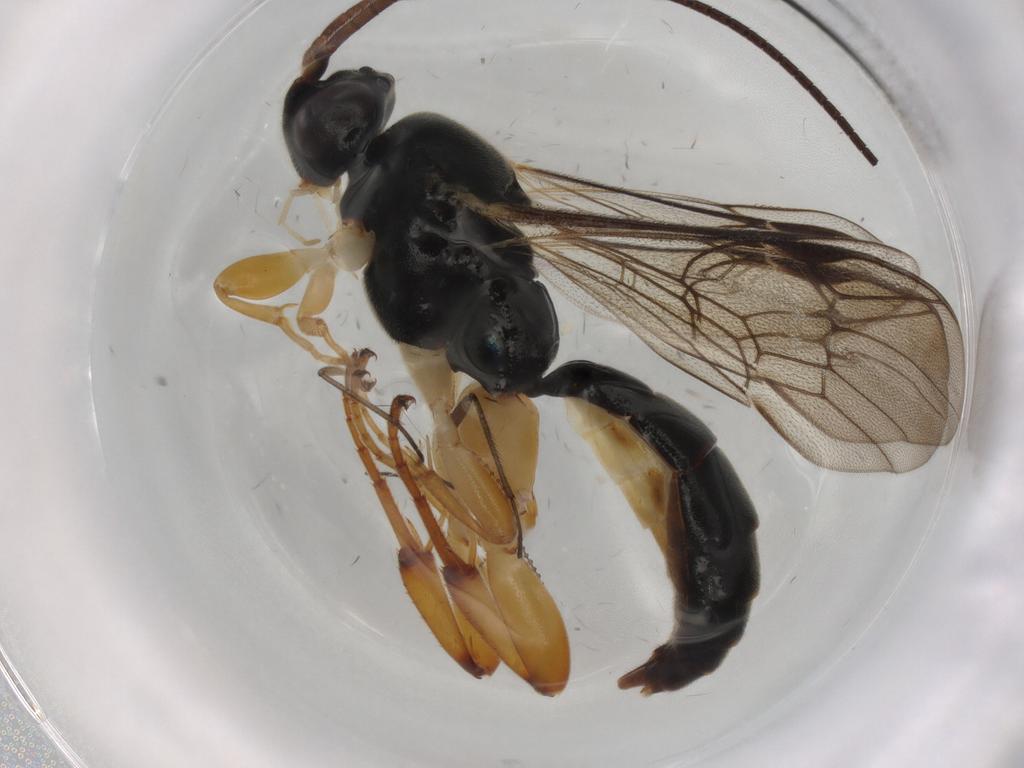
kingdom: Animalia
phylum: Arthropoda
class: Insecta
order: Hymenoptera
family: Ichneumonidae
